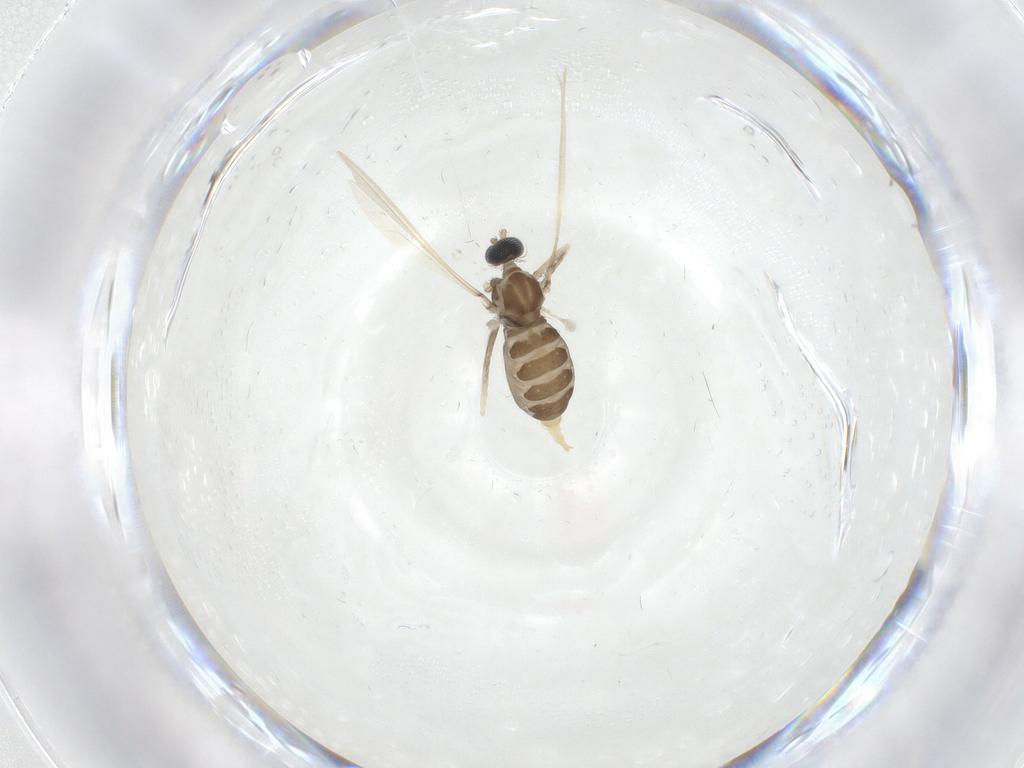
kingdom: Animalia
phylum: Arthropoda
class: Insecta
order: Diptera
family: Cecidomyiidae
